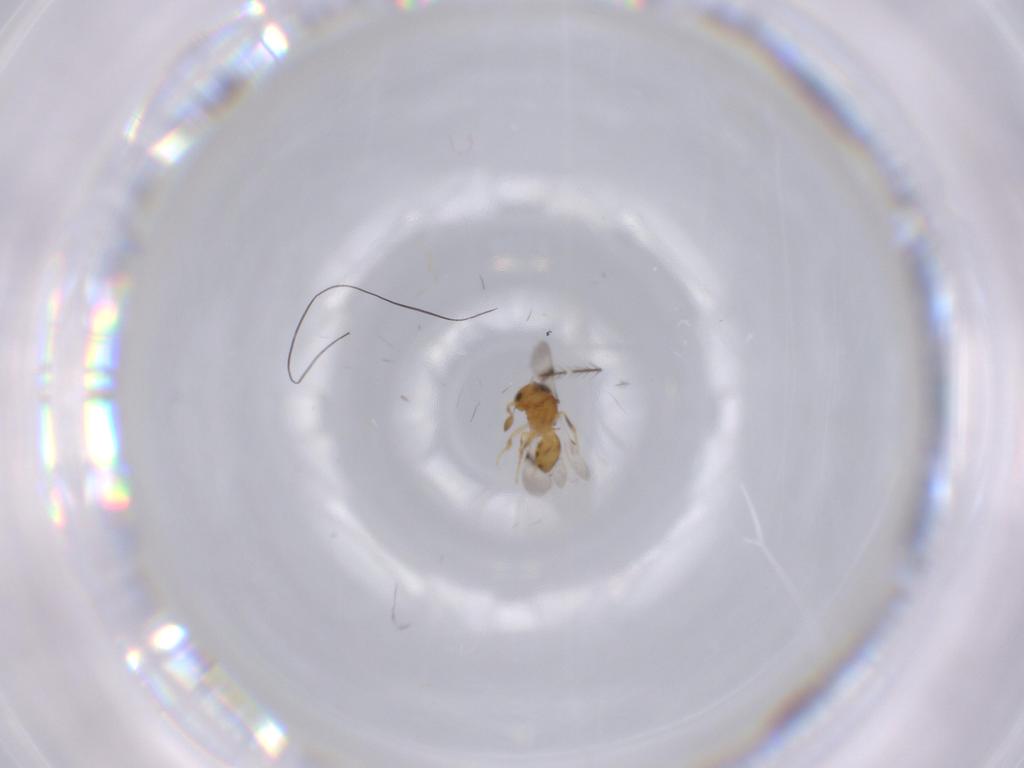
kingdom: Animalia
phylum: Arthropoda
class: Insecta
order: Hymenoptera
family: Scelionidae
